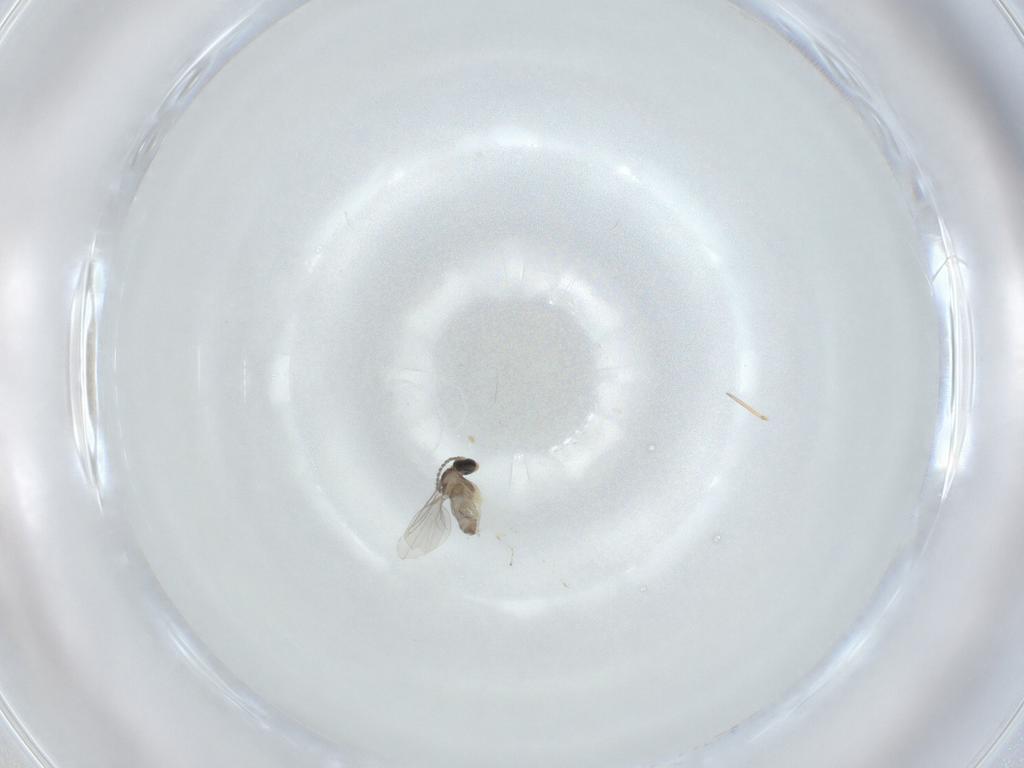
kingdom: Animalia
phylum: Arthropoda
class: Insecta
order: Diptera
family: Cecidomyiidae
